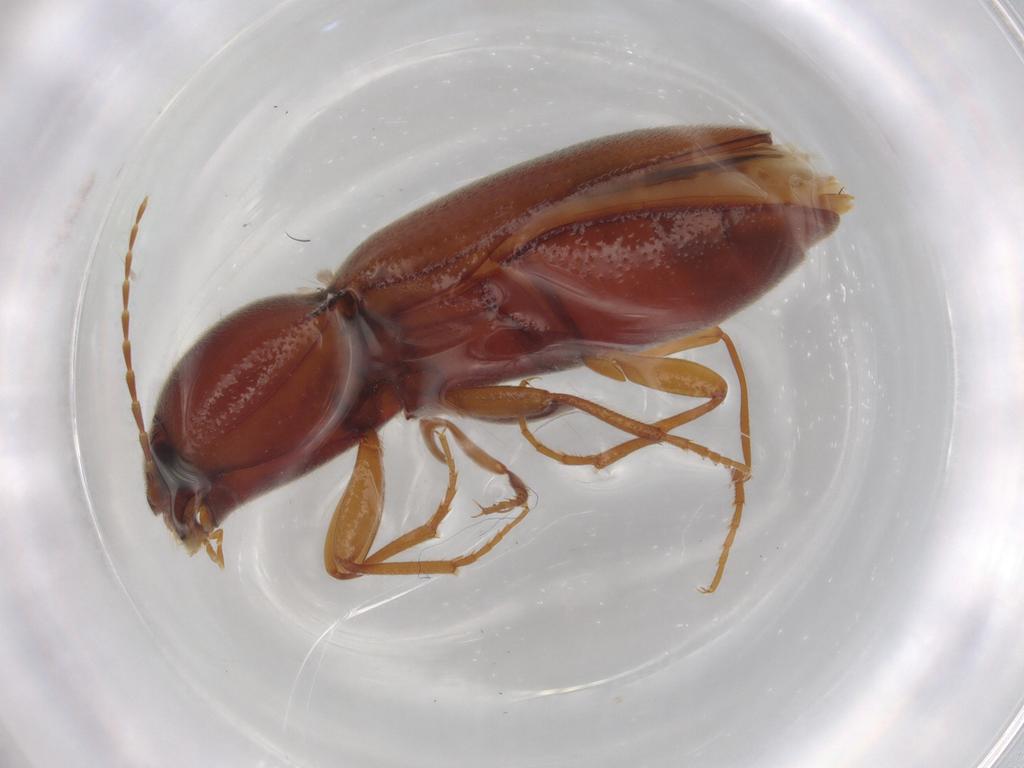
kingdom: Animalia
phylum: Arthropoda
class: Insecta
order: Coleoptera
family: Elateridae
